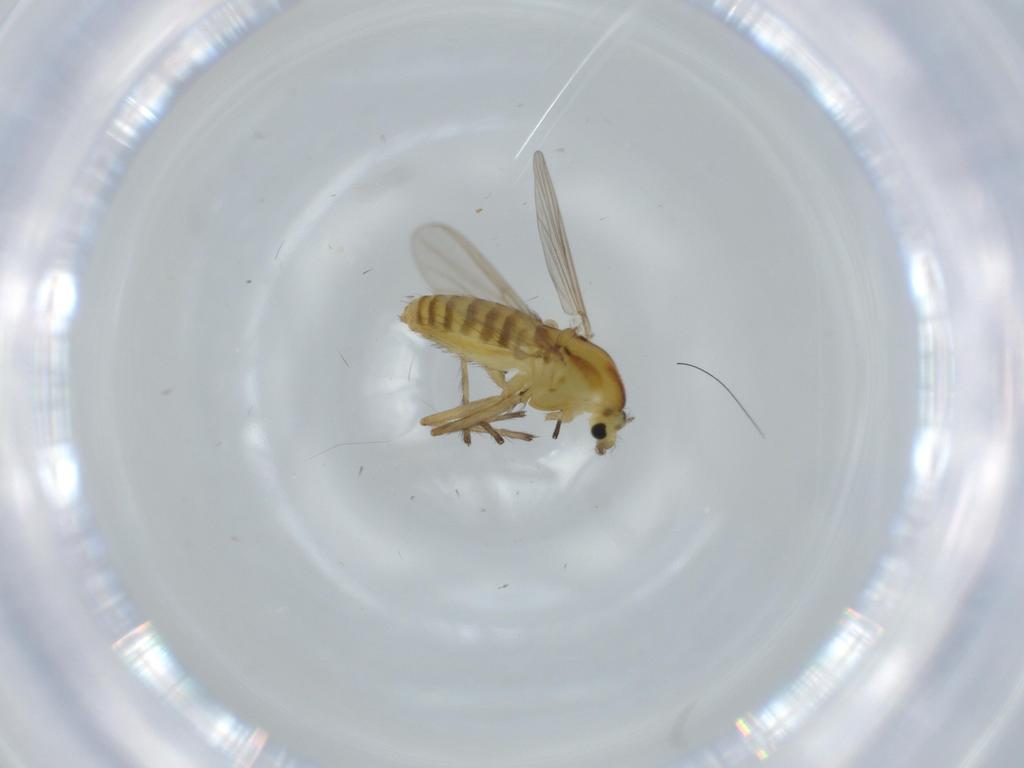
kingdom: Animalia
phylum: Arthropoda
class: Insecta
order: Diptera
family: Chironomidae
